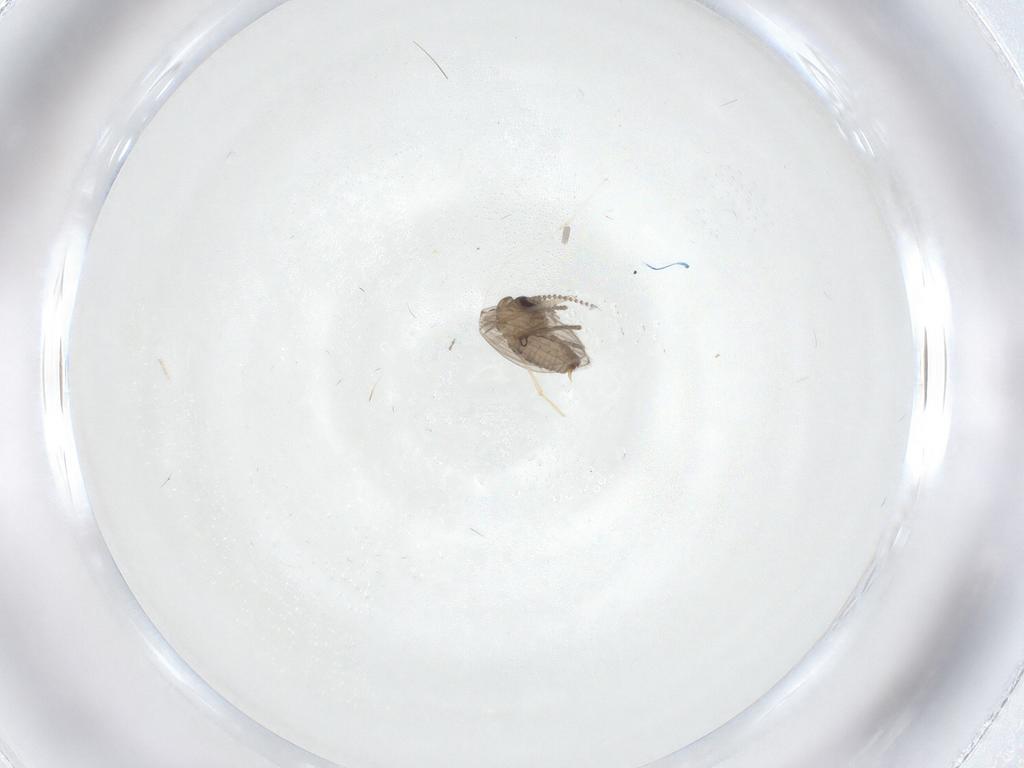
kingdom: Animalia
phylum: Arthropoda
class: Insecta
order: Diptera
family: Psychodidae
